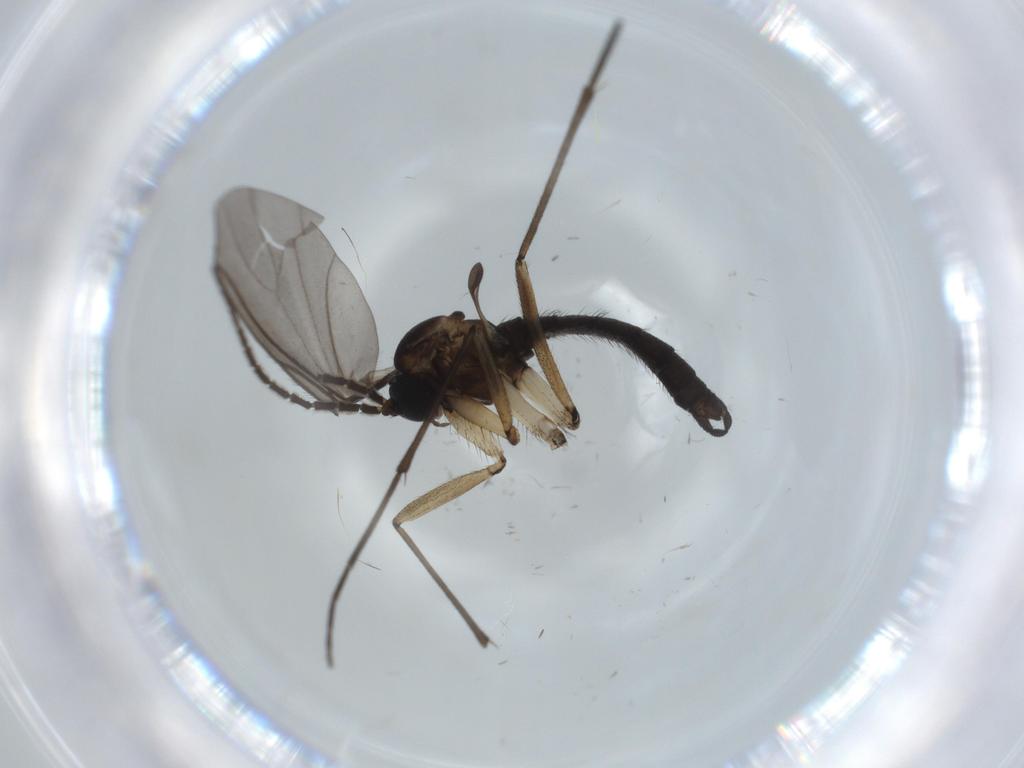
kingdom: Animalia
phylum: Arthropoda
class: Insecta
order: Diptera
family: Sciaridae
